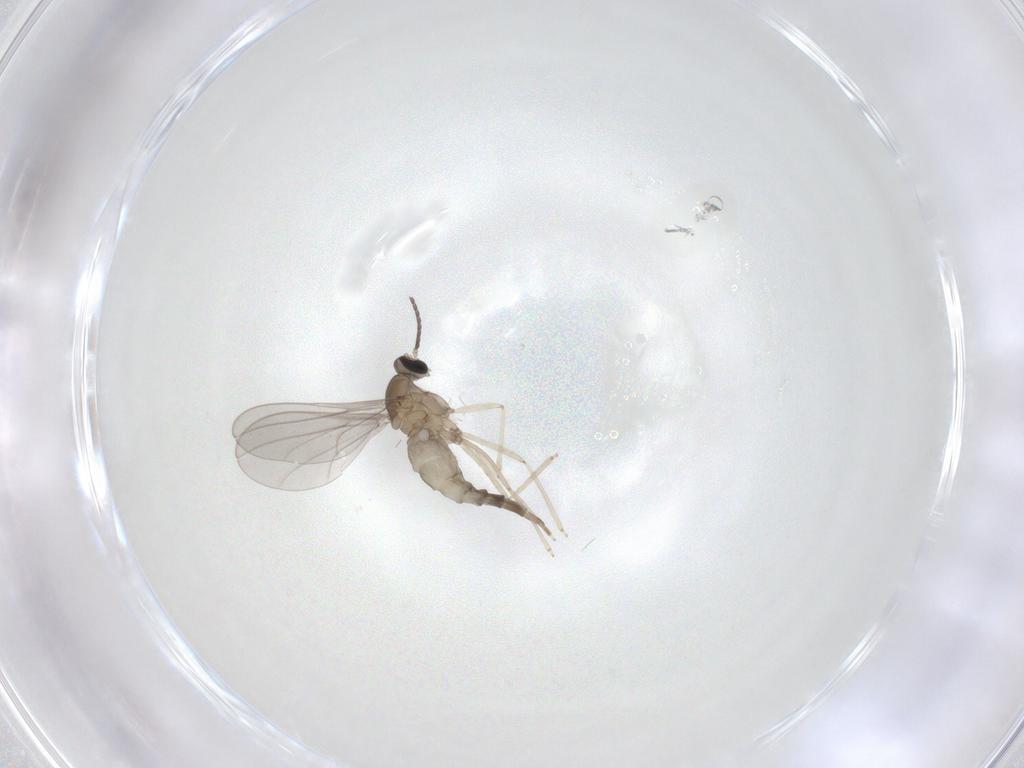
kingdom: Animalia
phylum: Arthropoda
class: Insecta
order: Diptera
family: Cecidomyiidae
